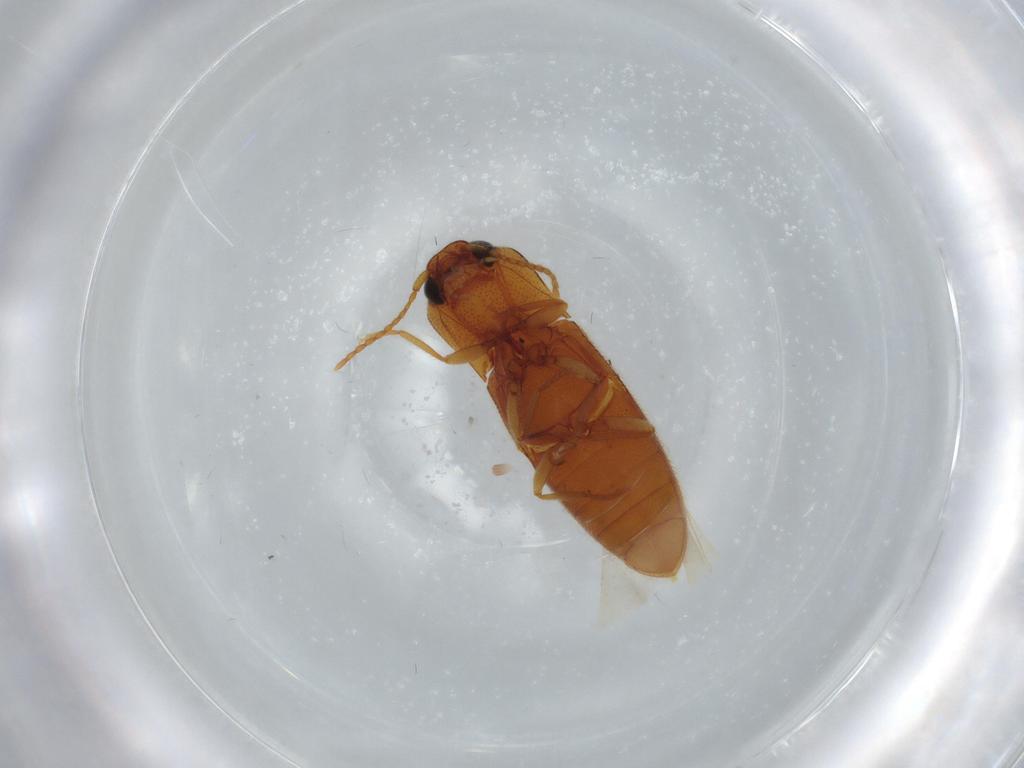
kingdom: Animalia
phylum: Arthropoda
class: Insecta
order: Coleoptera
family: Elateridae
